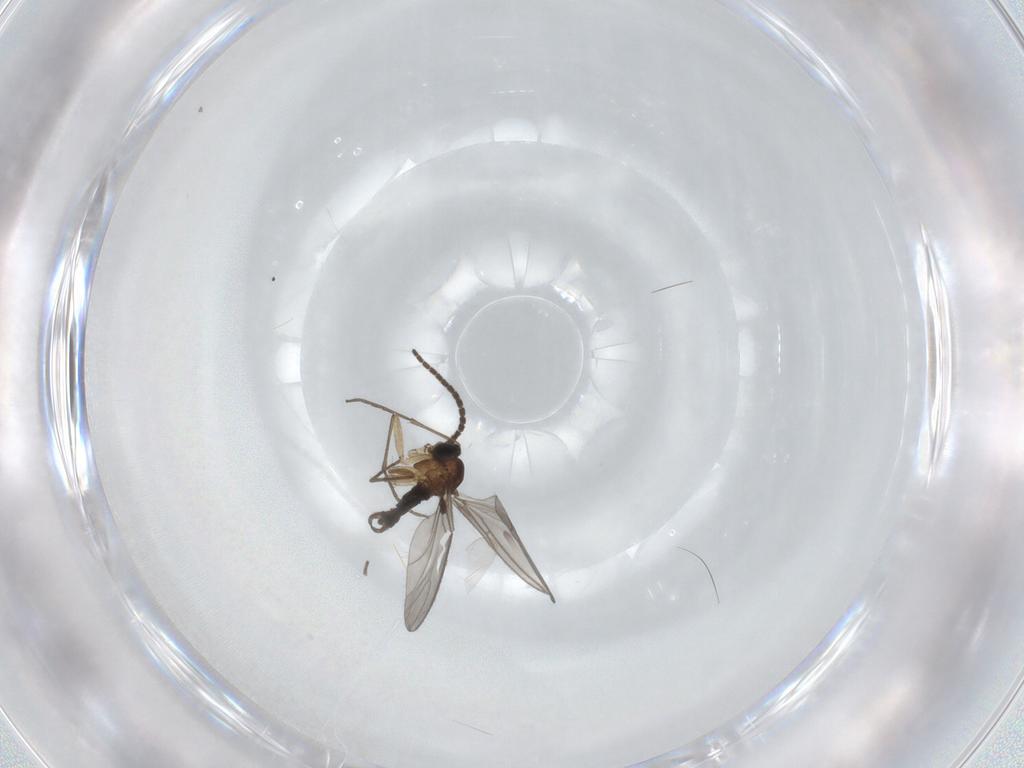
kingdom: Animalia
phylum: Arthropoda
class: Insecta
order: Diptera
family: Sciaridae
